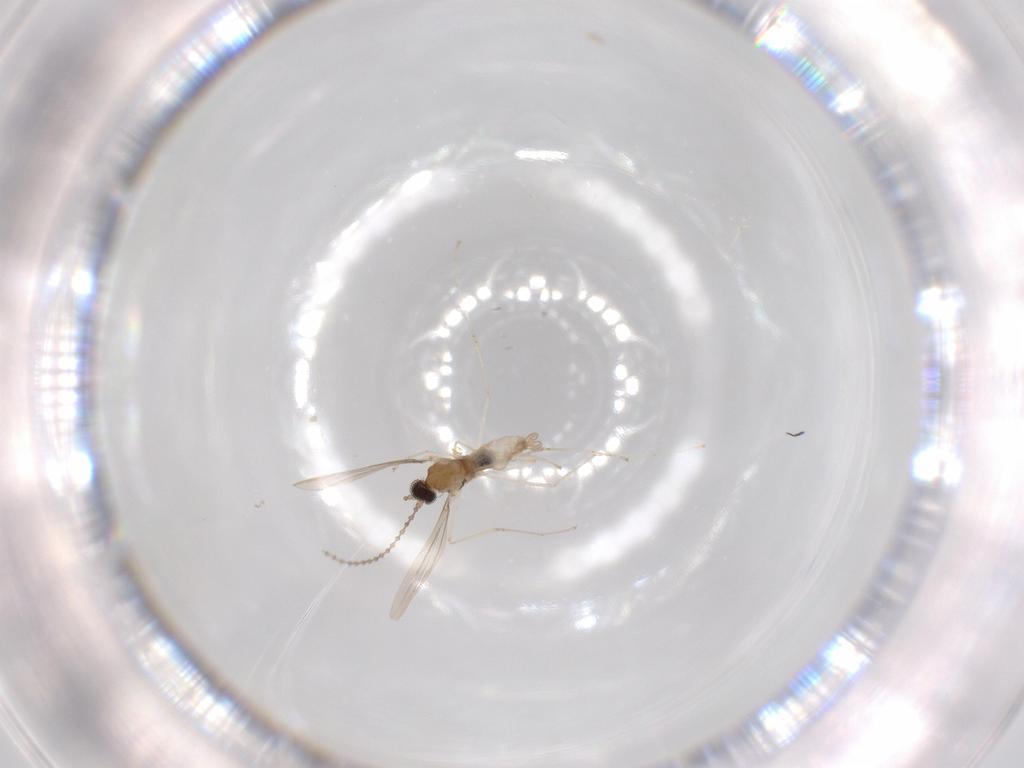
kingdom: Animalia
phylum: Arthropoda
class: Insecta
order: Diptera
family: Cecidomyiidae
